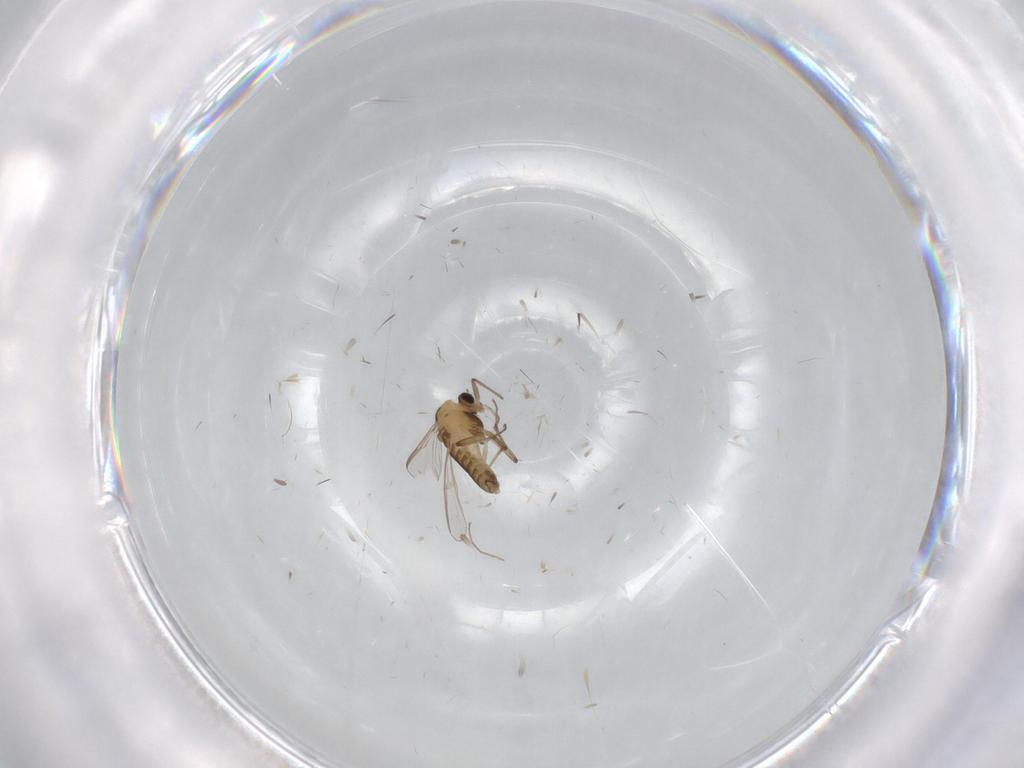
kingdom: Animalia
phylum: Arthropoda
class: Insecta
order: Diptera
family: Chironomidae
